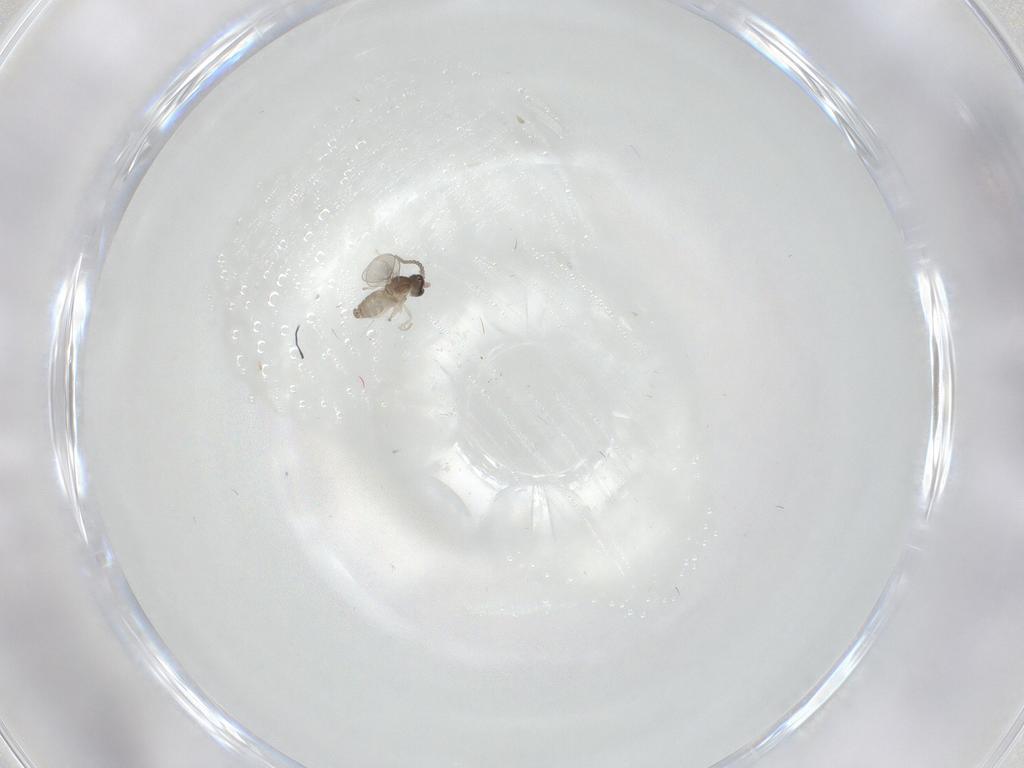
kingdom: Animalia
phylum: Arthropoda
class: Insecta
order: Diptera
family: Cecidomyiidae
